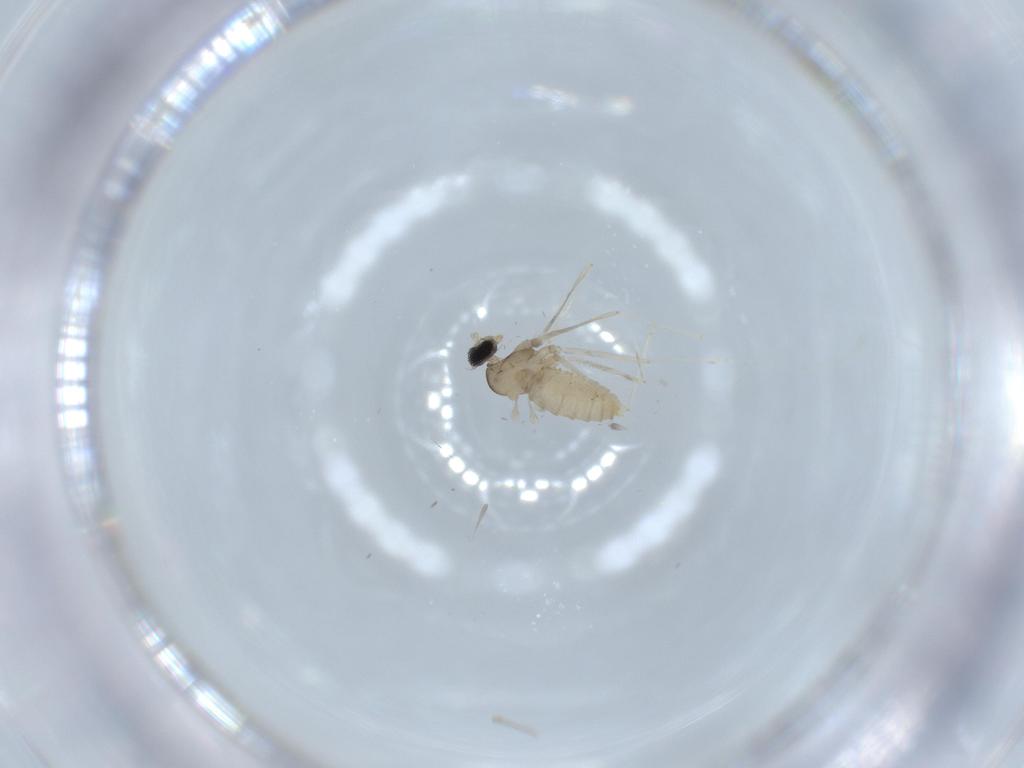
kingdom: Animalia
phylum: Arthropoda
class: Insecta
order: Diptera
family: Cecidomyiidae
